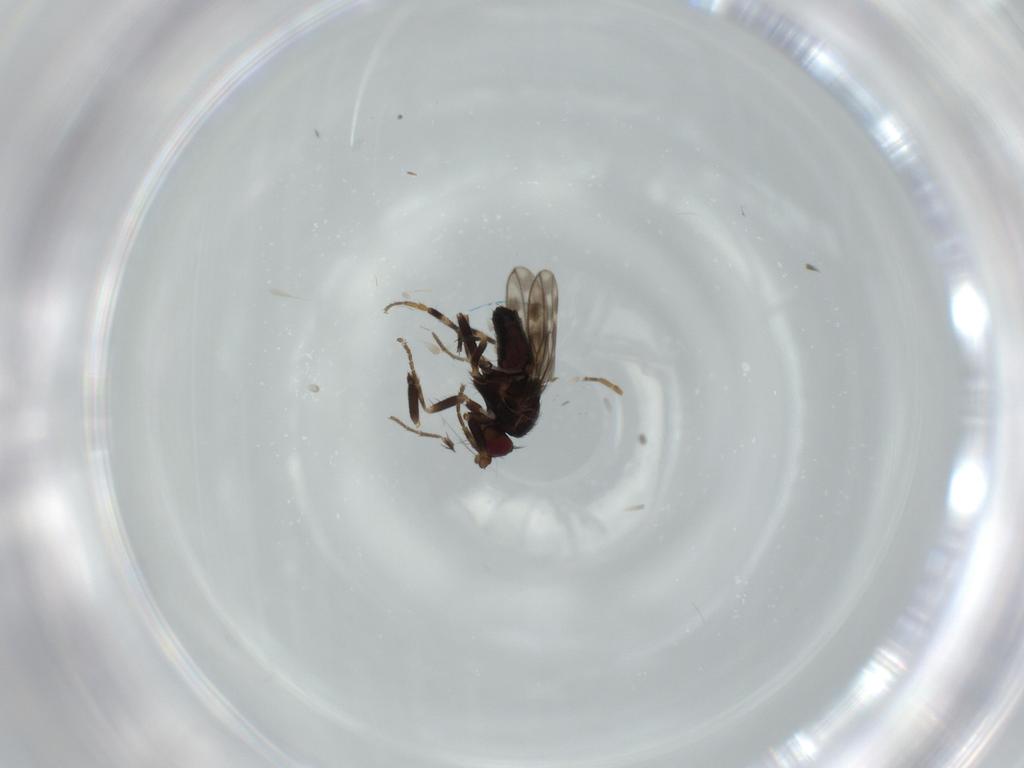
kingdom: Animalia
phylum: Arthropoda
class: Insecta
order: Diptera
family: Sphaeroceridae
